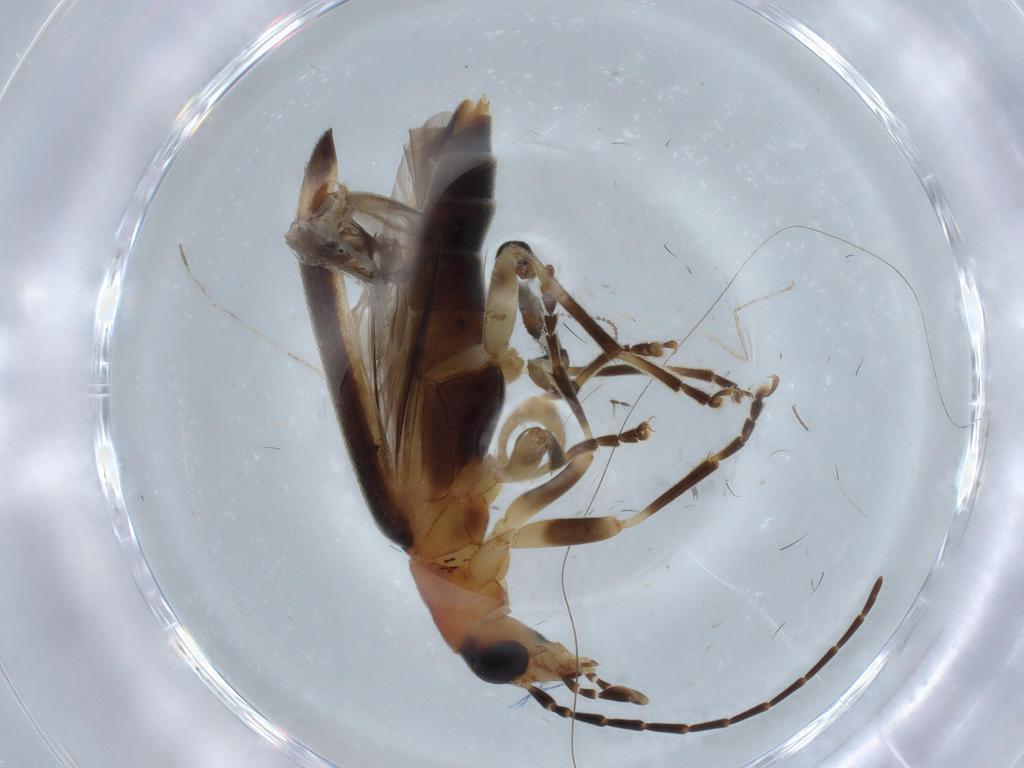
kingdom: Animalia
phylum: Arthropoda
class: Insecta
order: Coleoptera
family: Oedemeridae
